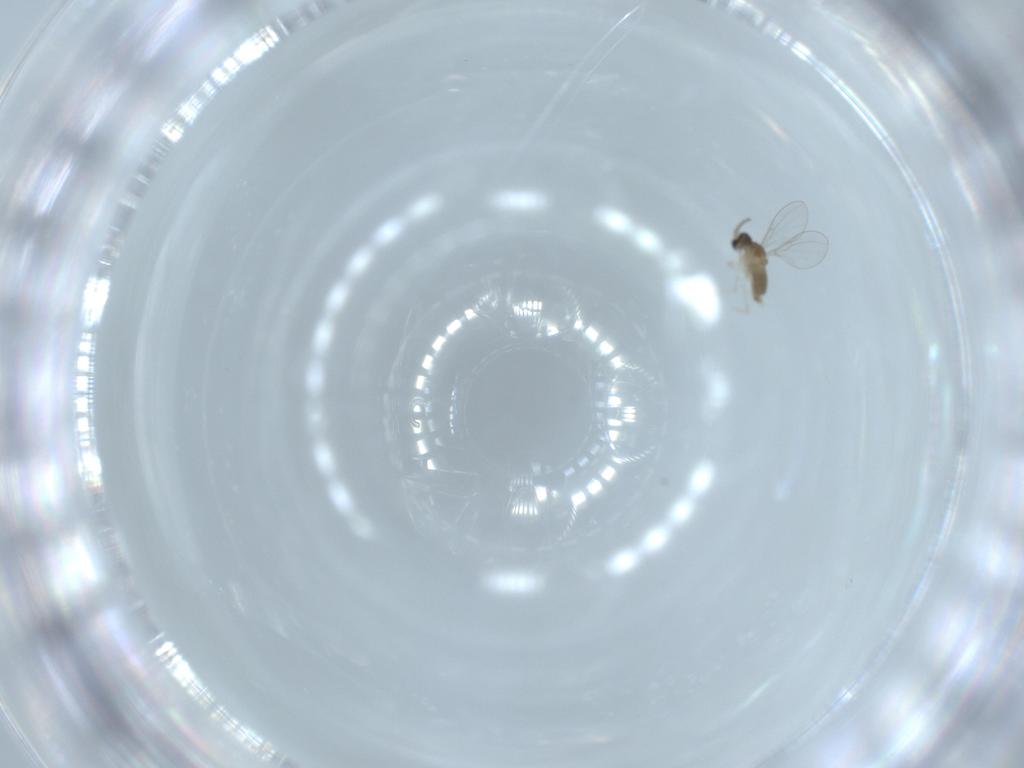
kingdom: Animalia
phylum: Arthropoda
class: Insecta
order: Diptera
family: Cecidomyiidae
